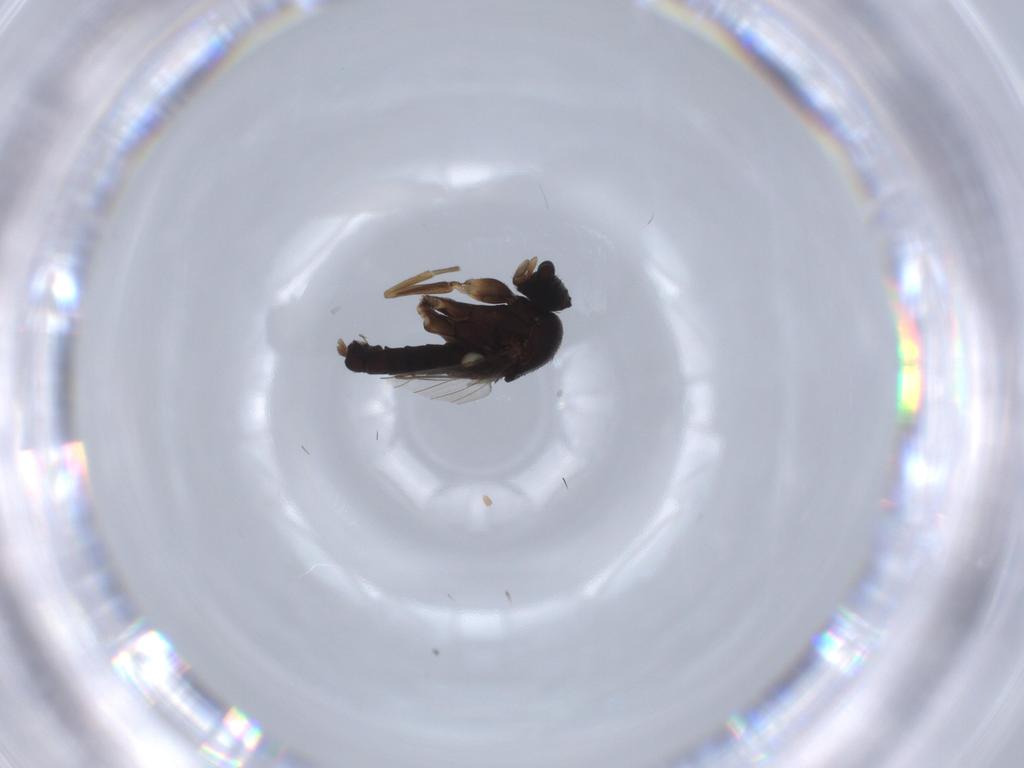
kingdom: Animalia
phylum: Arthropoda
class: Insecta
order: Diptera
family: Phoridae
